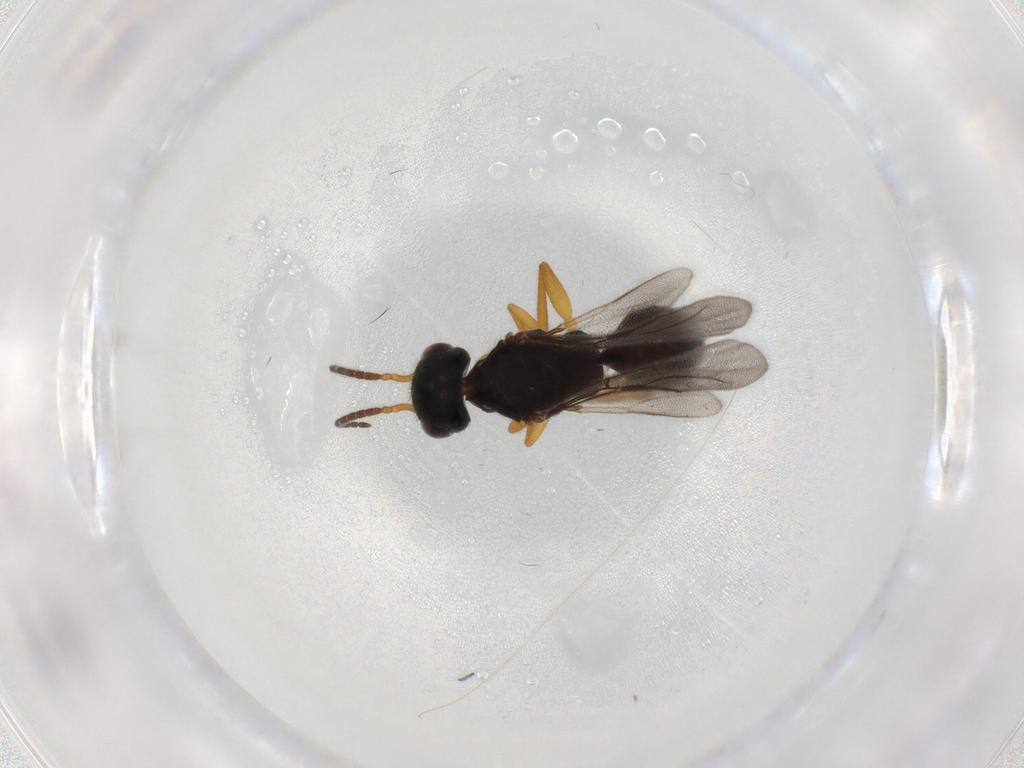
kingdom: Animalia
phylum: Arthropoda
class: Insecta
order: Hymenoptera
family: Bethylidae
